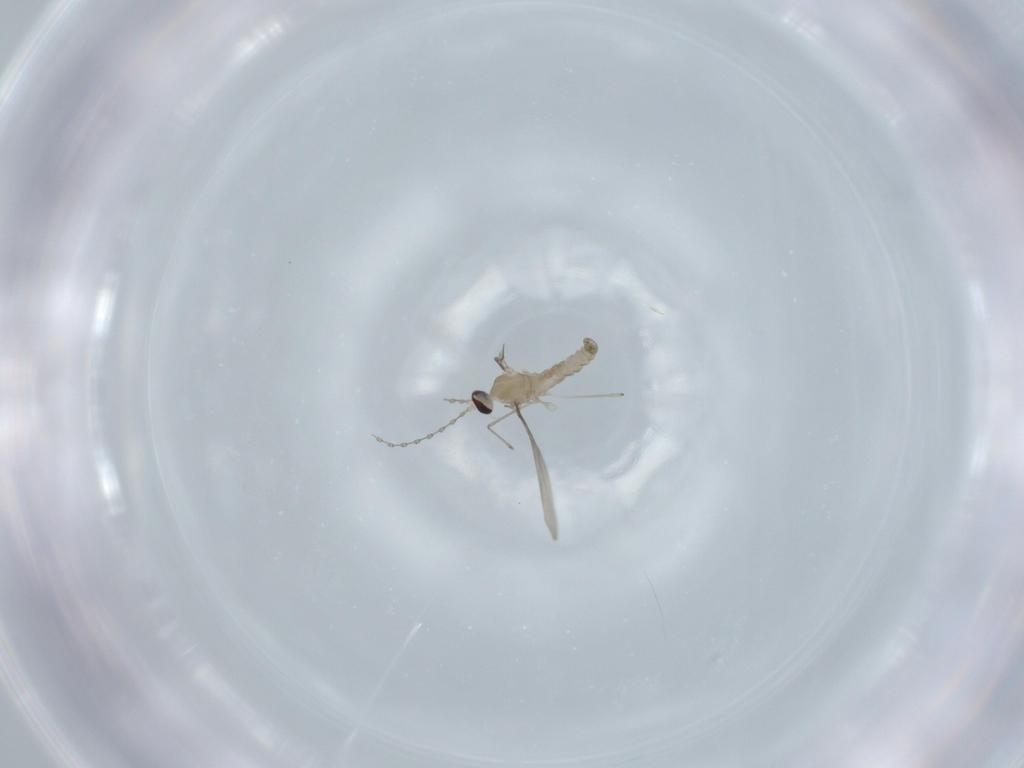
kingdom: Animalia
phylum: Arthropoda
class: Insecta
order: Diptera
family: Cecidomyiidae
